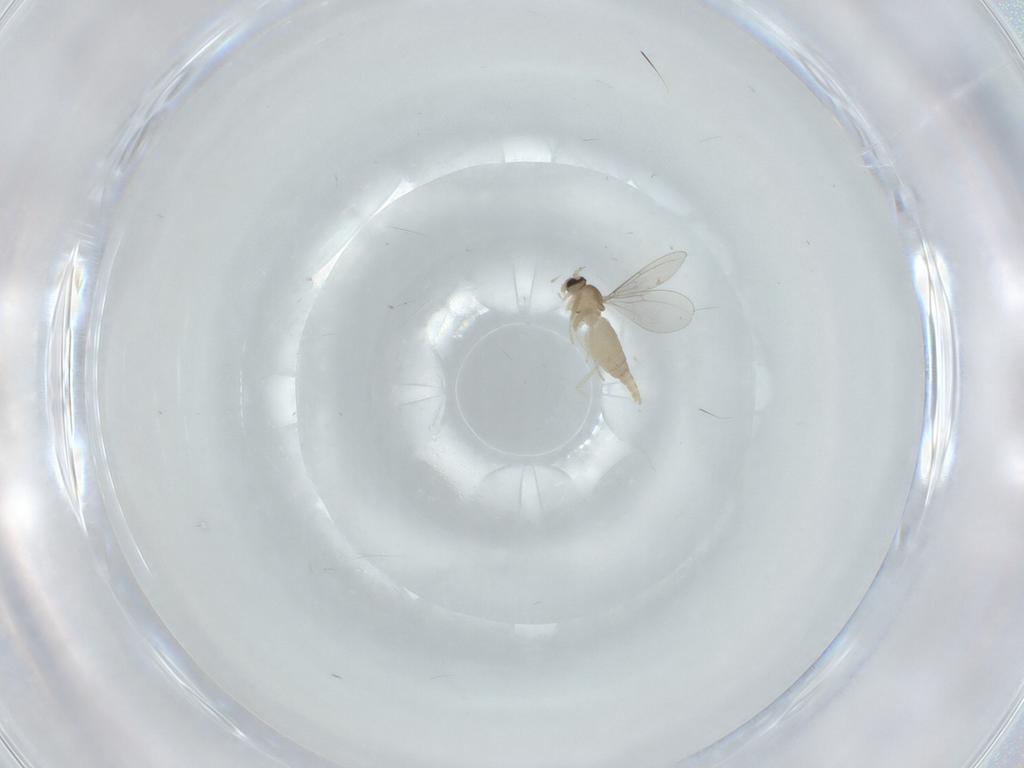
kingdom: Animalia
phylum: Arthropoda
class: Insecta
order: Diptera
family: Cecidomyiidae
